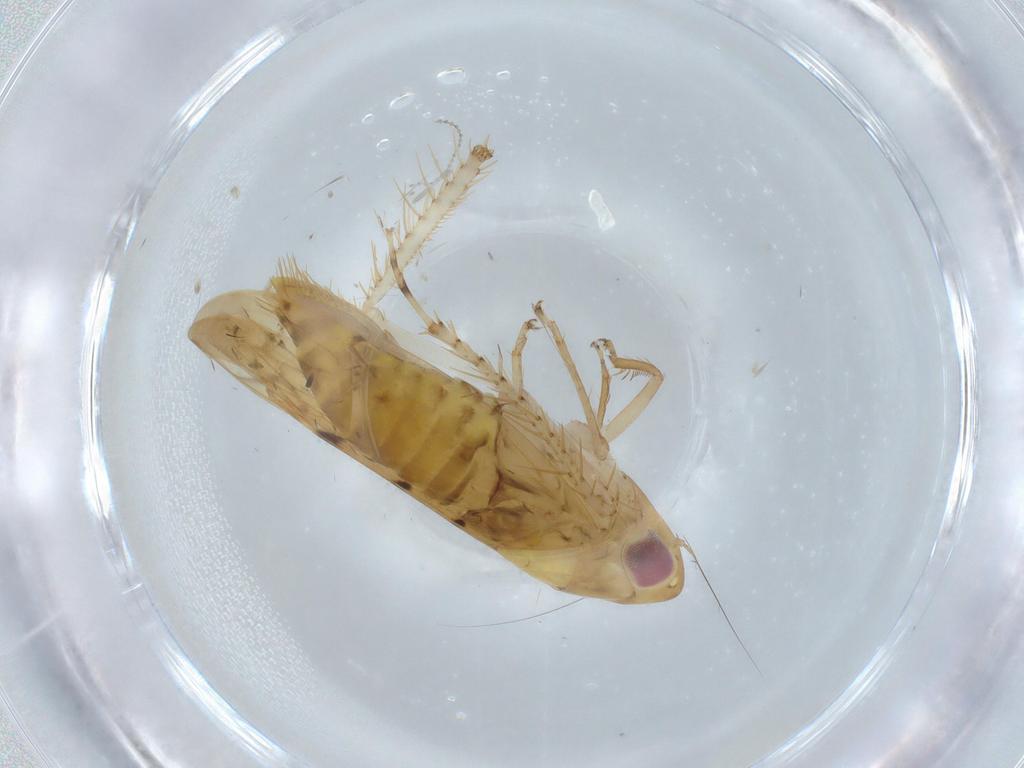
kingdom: Animalia
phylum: Arthropoda
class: Insecta
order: Hemiptera
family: Cicadellidae
